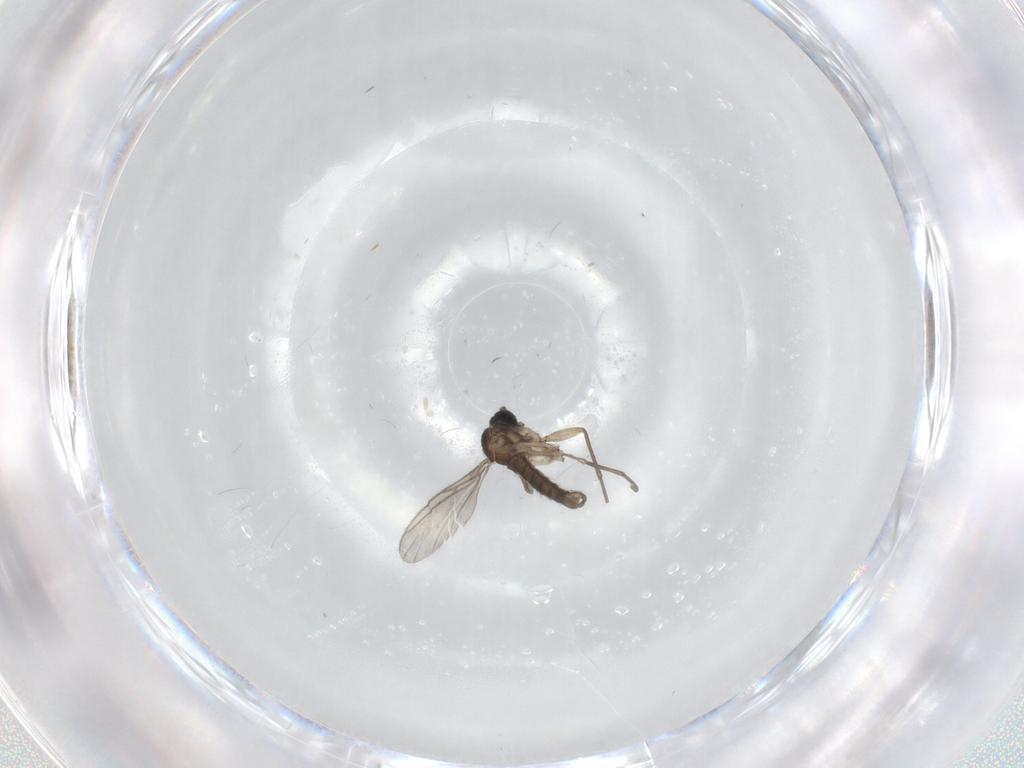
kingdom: Animalia
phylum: Arthropoda
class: Insecta
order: Diptera
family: Sciaridae
